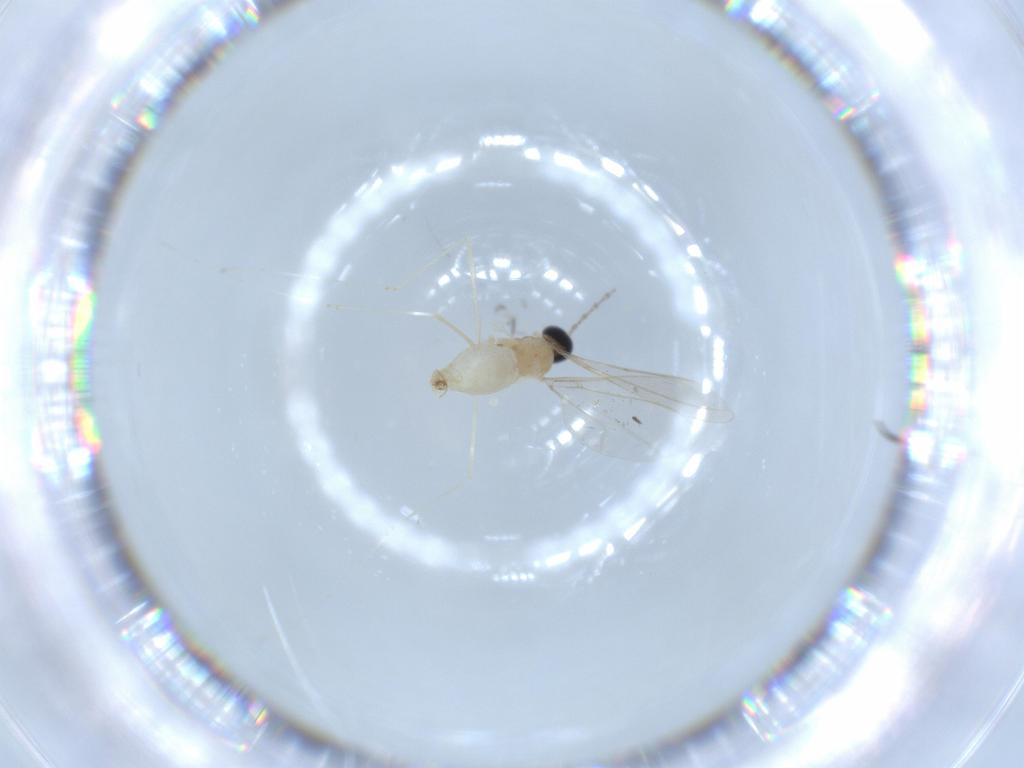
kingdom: Animalia
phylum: Arthropoda
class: Insecta
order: Diptera
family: Cecidomyiidae
